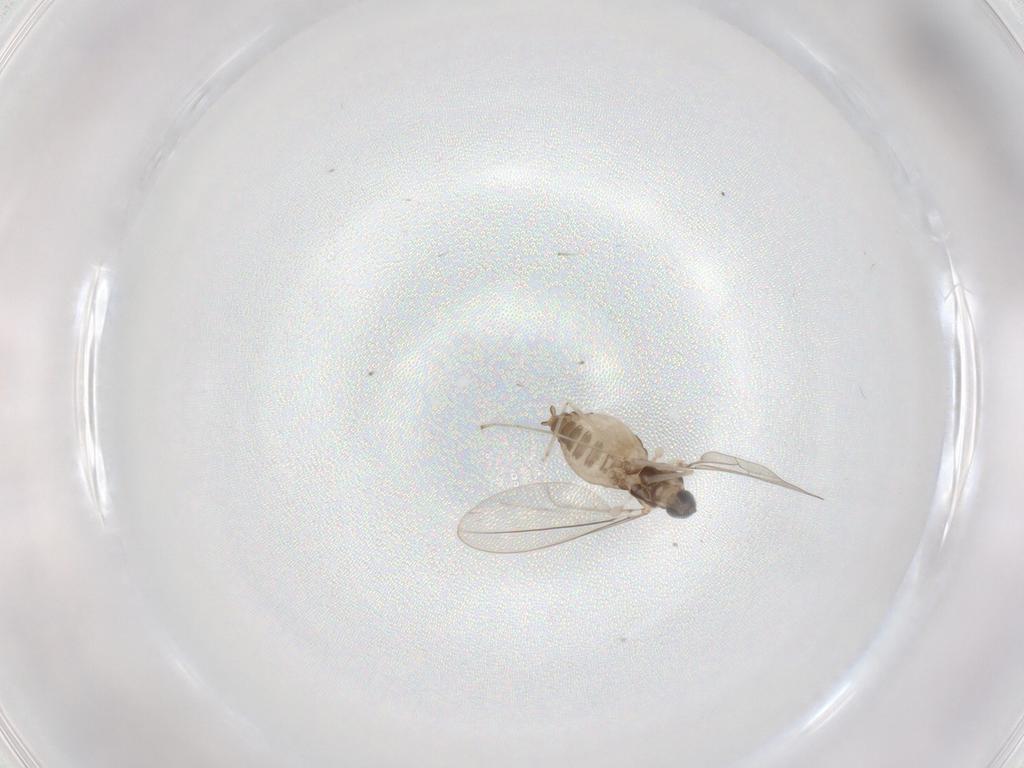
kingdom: Animalia
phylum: Arthropoda
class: Insecta
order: Diptera
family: Cecidomyiidae
